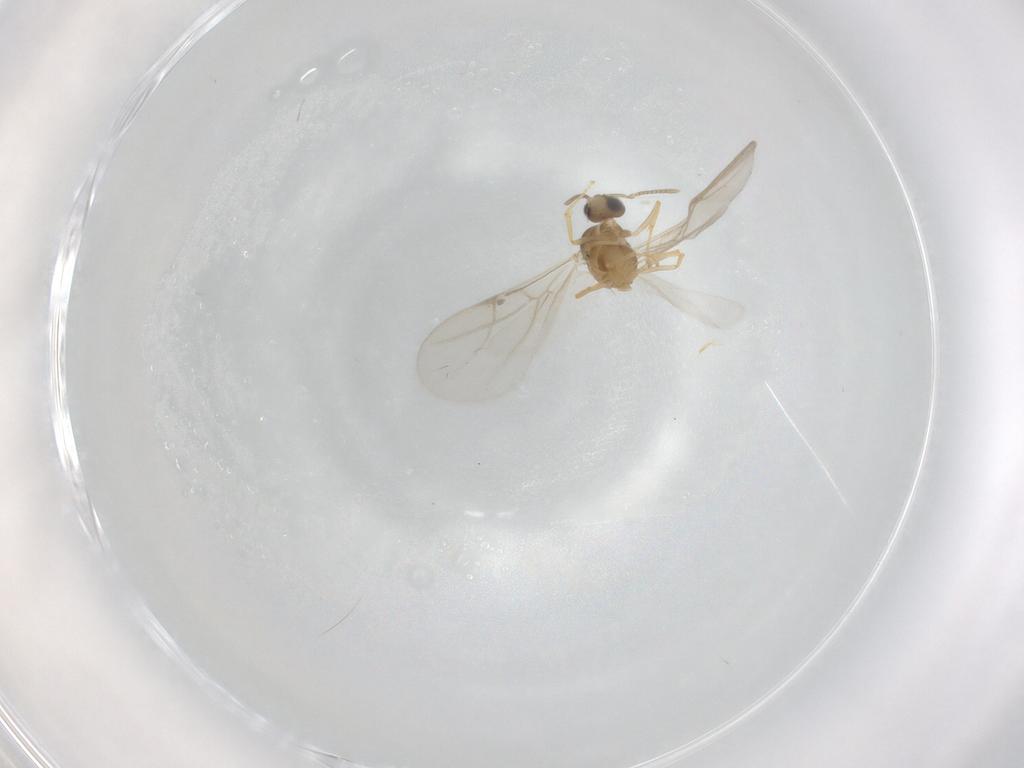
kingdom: Animalia
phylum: Arthropoda
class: Insecta
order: Hymenoptera
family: Formicidae
